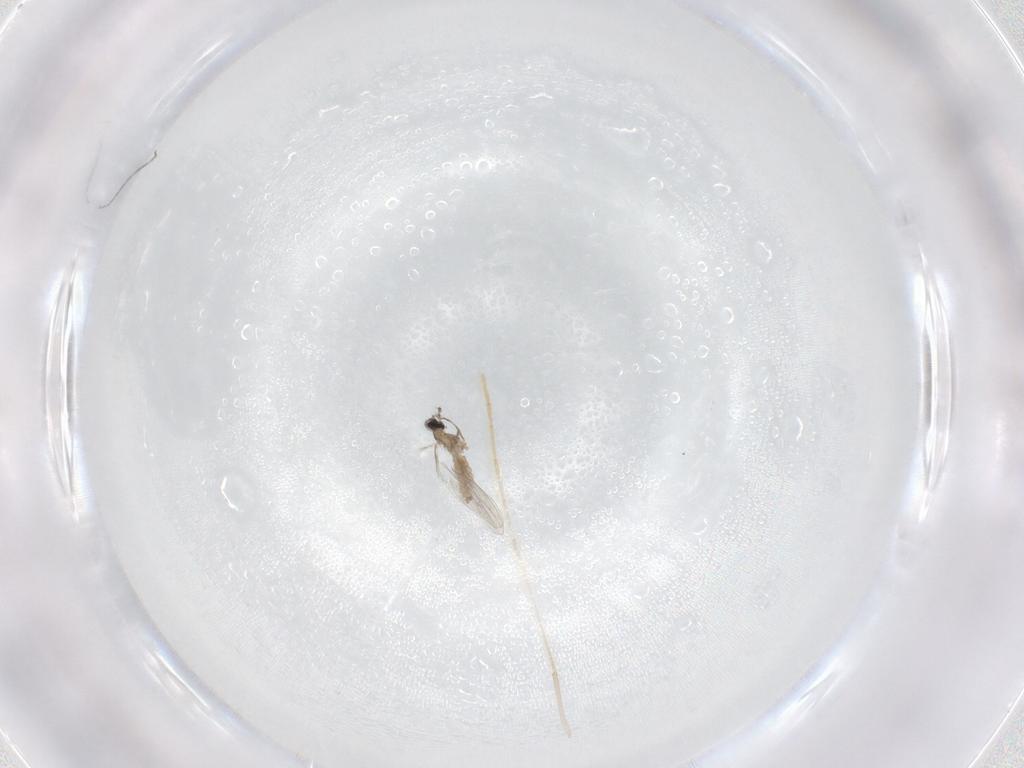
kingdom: Animalia
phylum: Arthropoda
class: Insecta
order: Diptera
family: Cecidomyiidae
